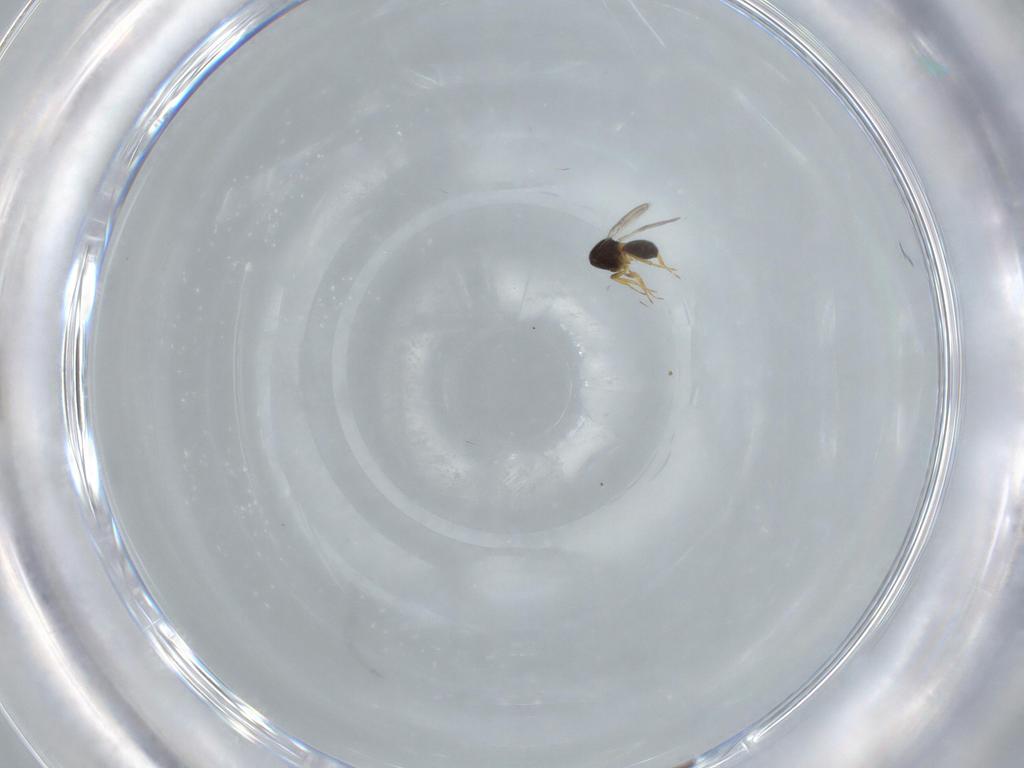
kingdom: Animalia
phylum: Arthropoda
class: Insecta
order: Hymenoptera
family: Scelionidae
